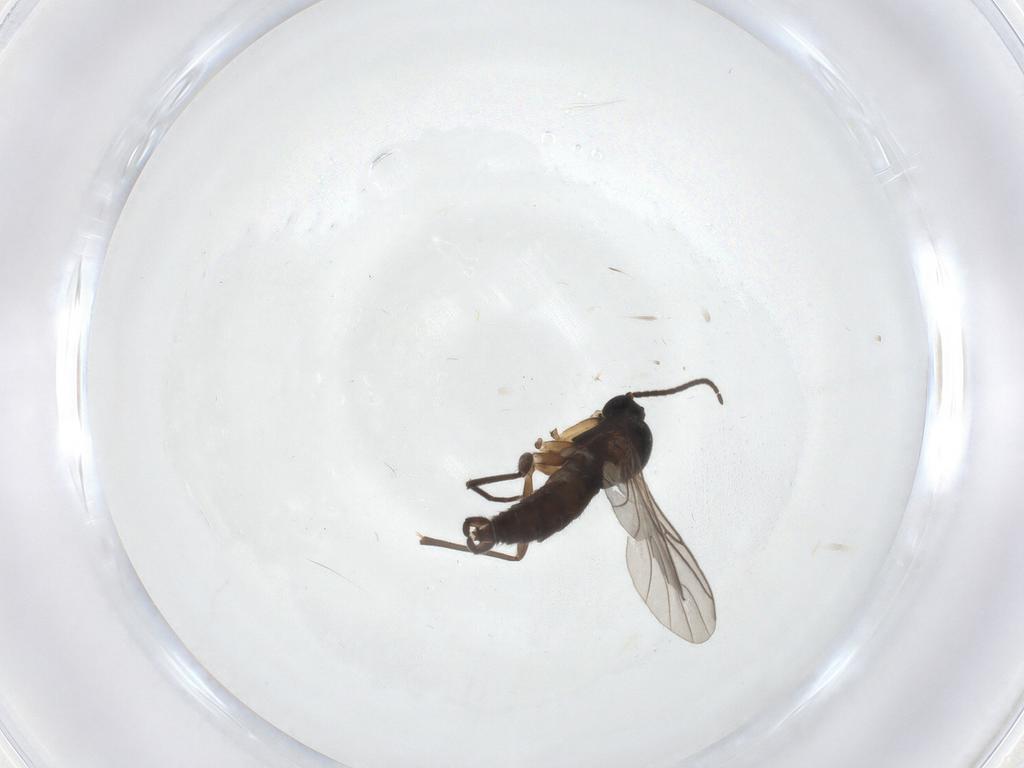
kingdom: Animalia
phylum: Arthropoda
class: Insecta
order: Diptera
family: Sciaridae
